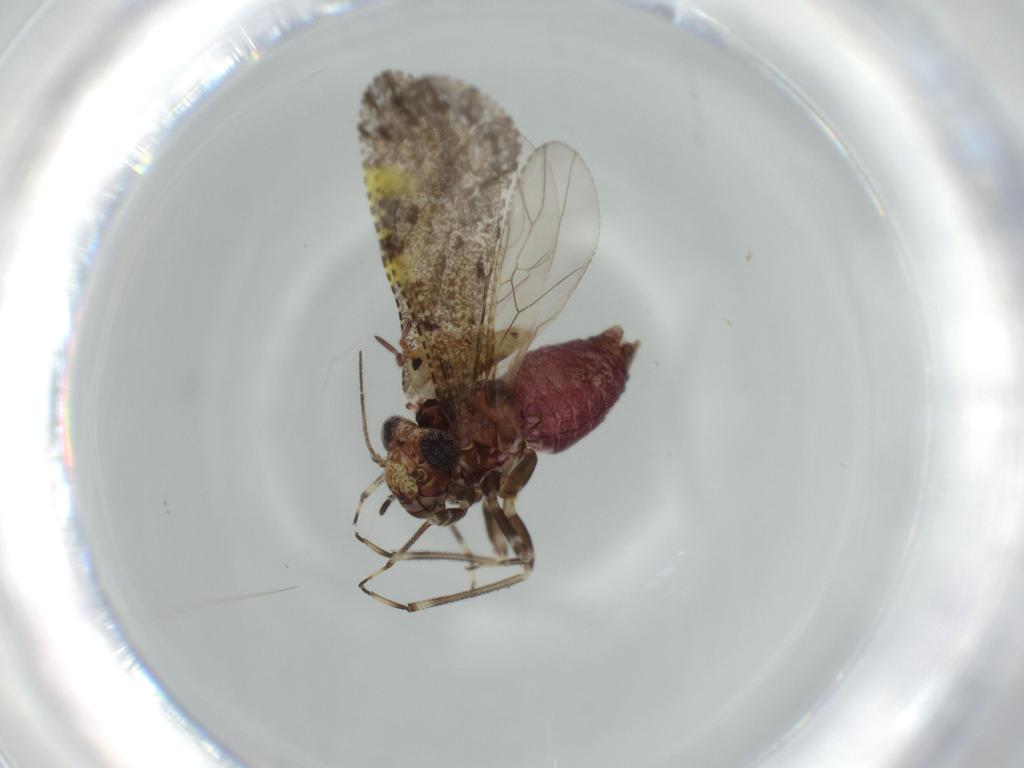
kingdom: Animalia
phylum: Arthropoda
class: Insecta
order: Psocodea
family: Caeciliusidae
